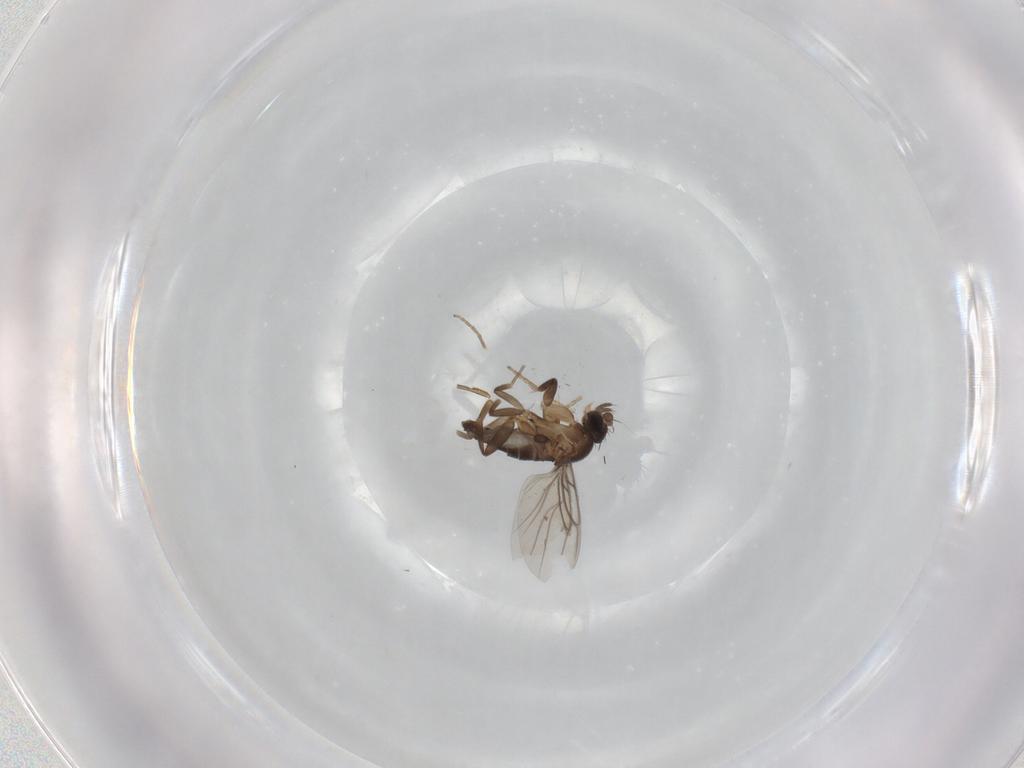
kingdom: Animalia
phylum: Arthropoda
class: Insecta
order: Diptera
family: Phoridae
